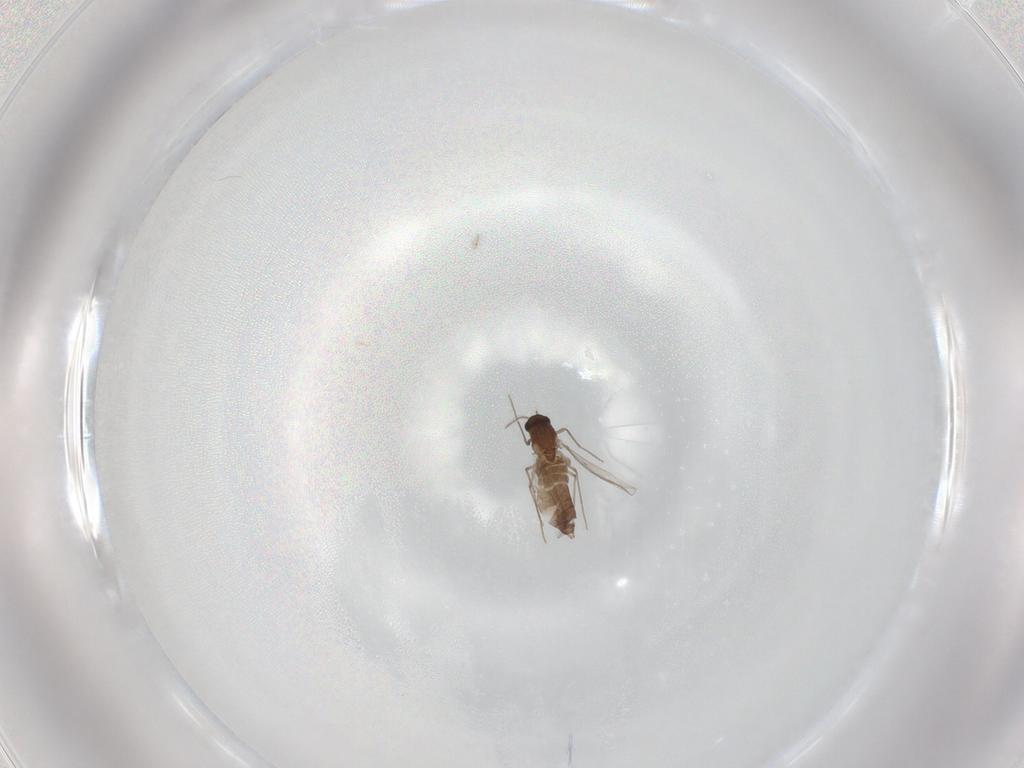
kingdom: Animalia
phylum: Arthropoda
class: Insecta
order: Diptera
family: Chironomidae
